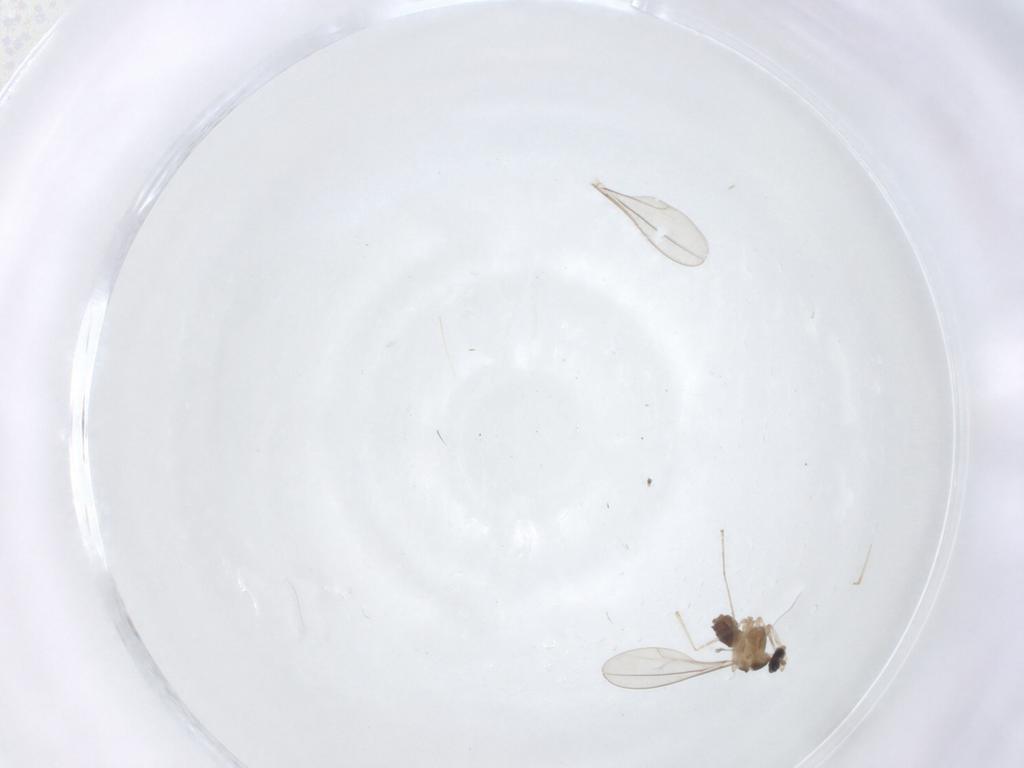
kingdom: Animalia
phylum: Arthropoda
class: Insecta
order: Diptera
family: Cecidomyiidae
